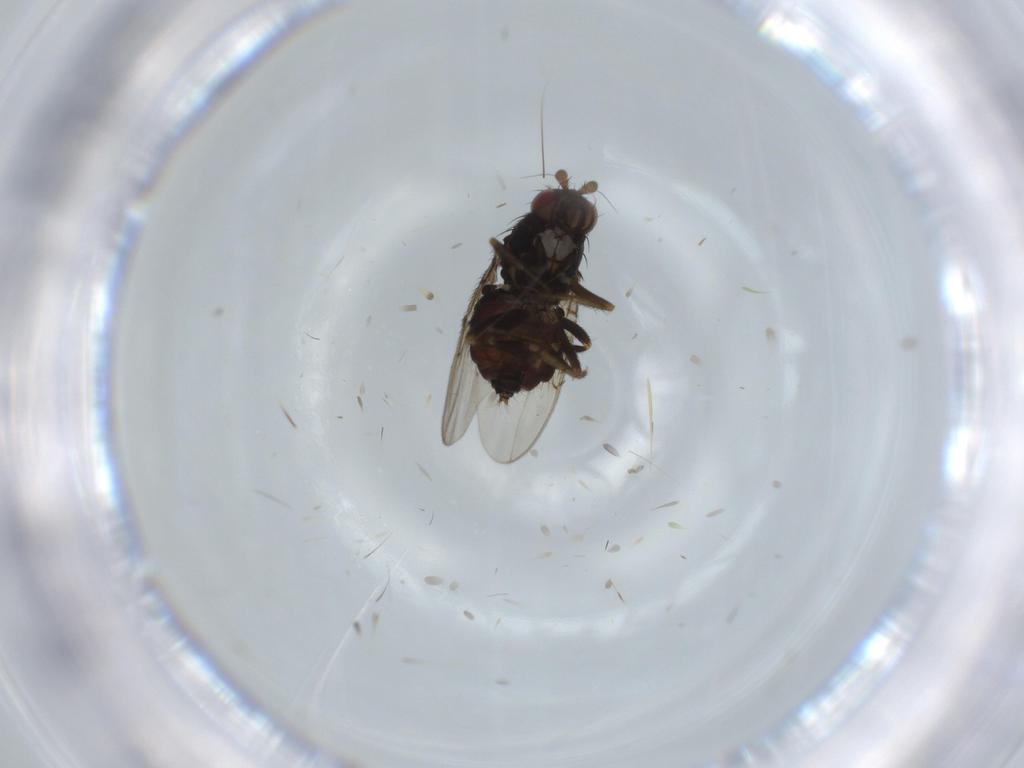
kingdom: Animalia
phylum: Arthropoda
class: Insecta
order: Diptera
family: Sphaeroceridae
